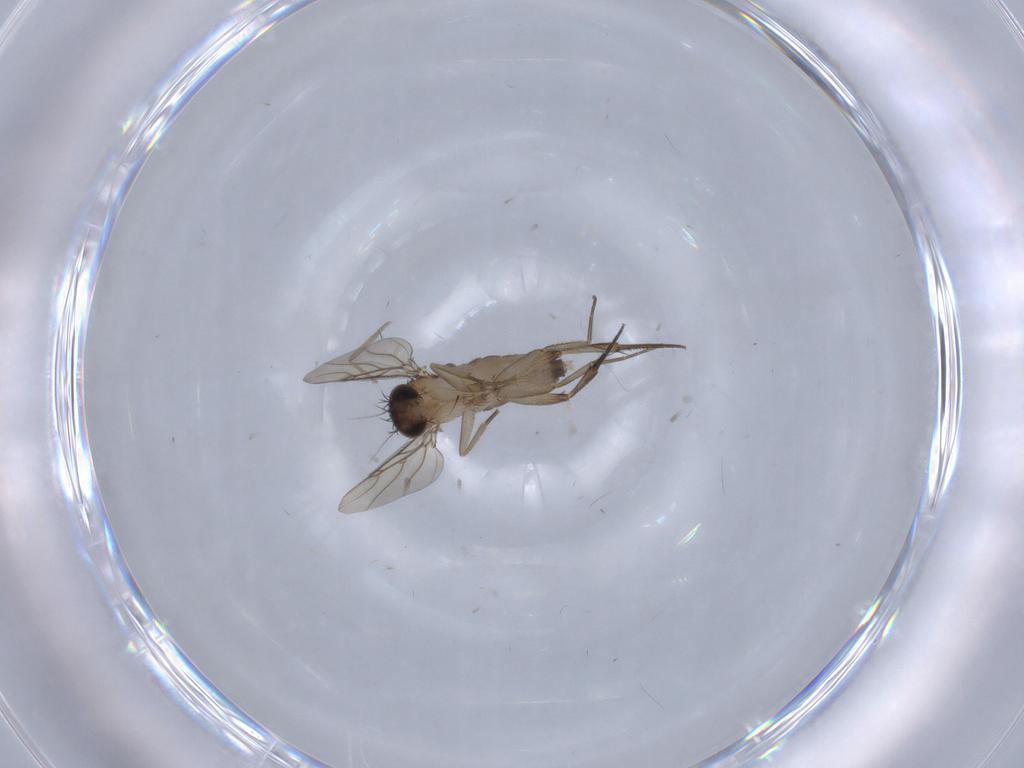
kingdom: Animalia
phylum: Arthropoda
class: Insecta
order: Diptera
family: Phoridae
